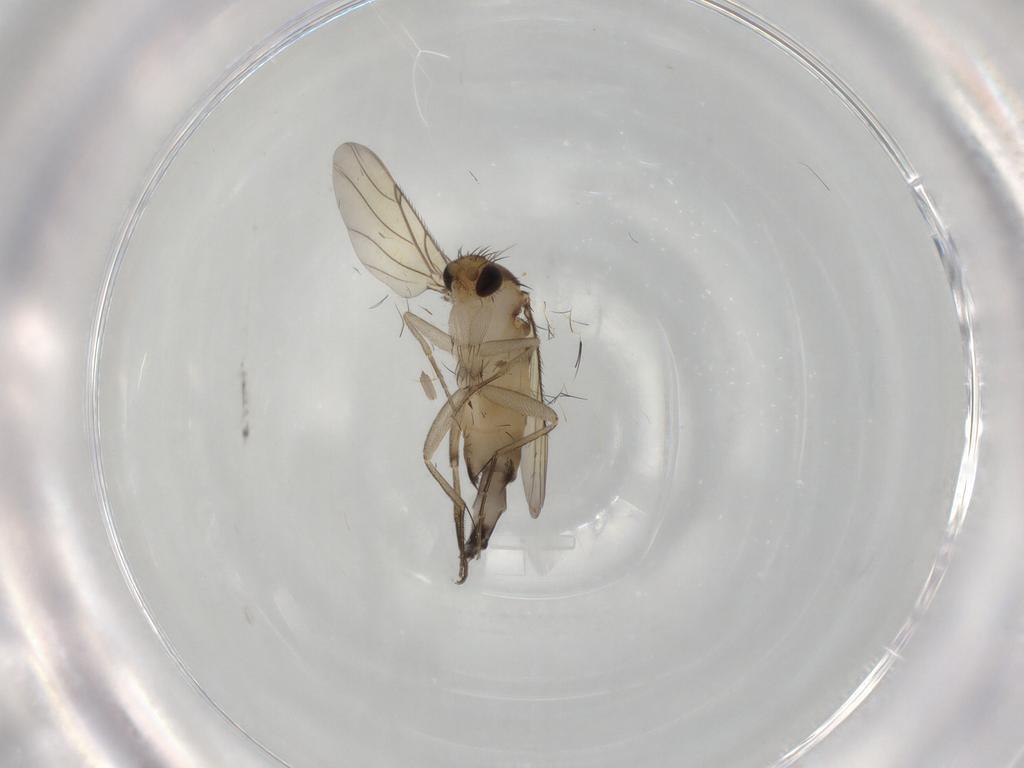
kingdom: Animalia
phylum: Arthropoda
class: Insecta
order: Diptera
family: Phoridae
